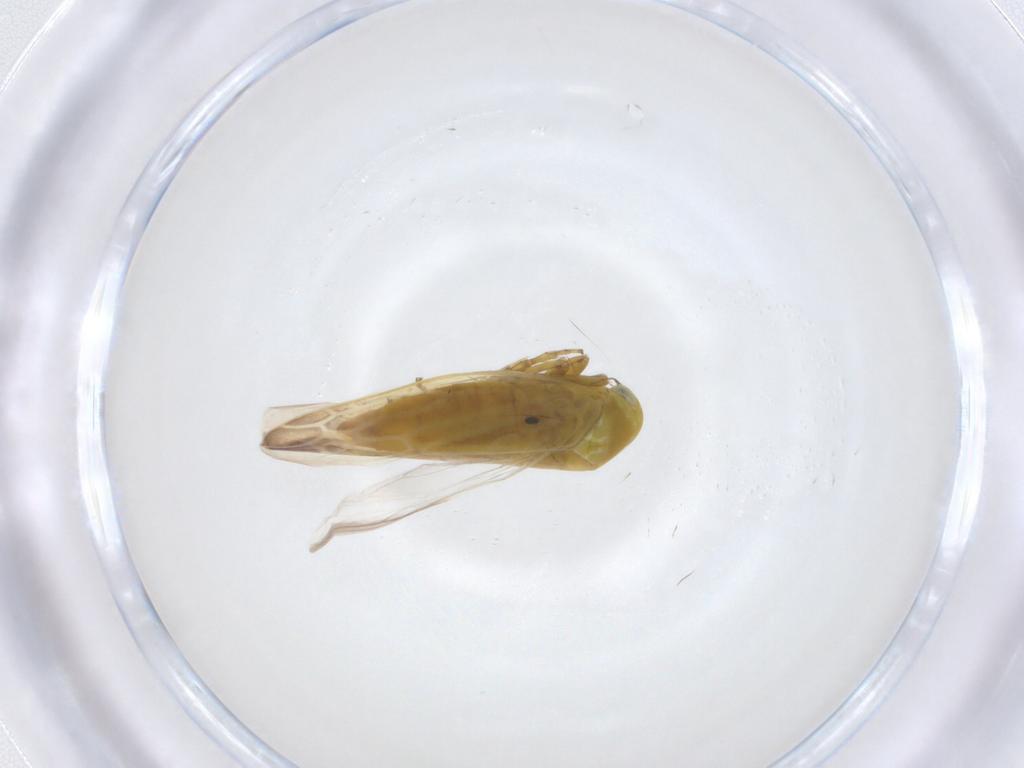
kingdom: Animalia
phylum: Arthropoda
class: Insecta
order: Hemiptera
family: Cicadellidae
